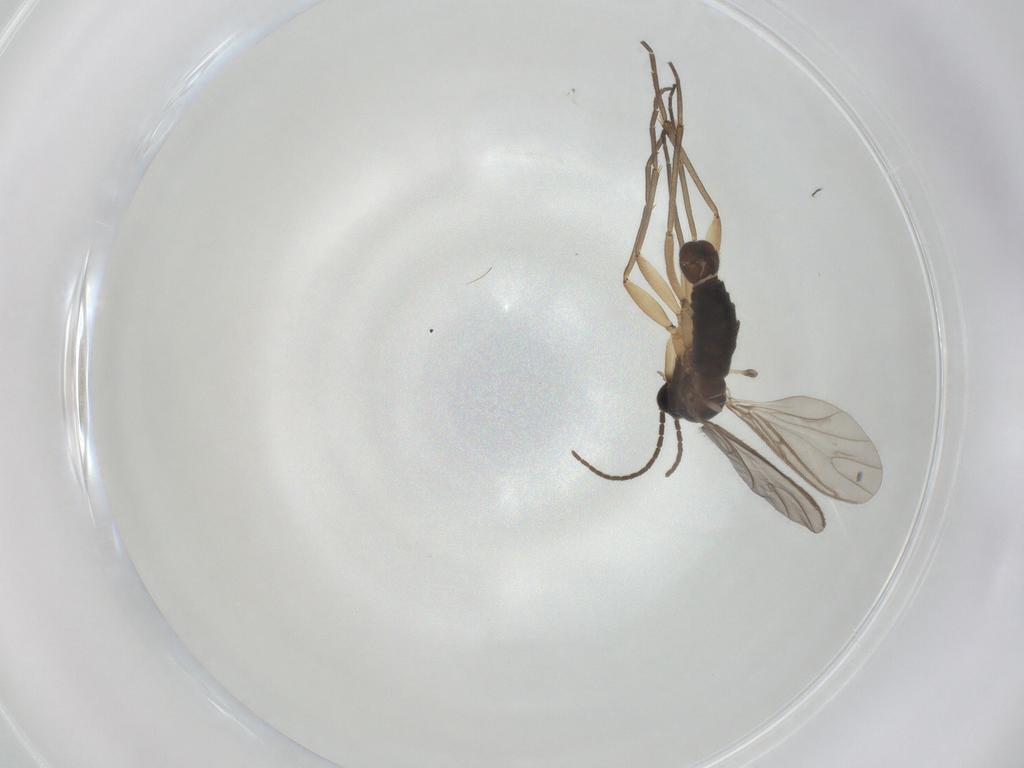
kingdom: Animalia
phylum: Arthropoda
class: Insecta
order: Diptera
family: Sciaridae
